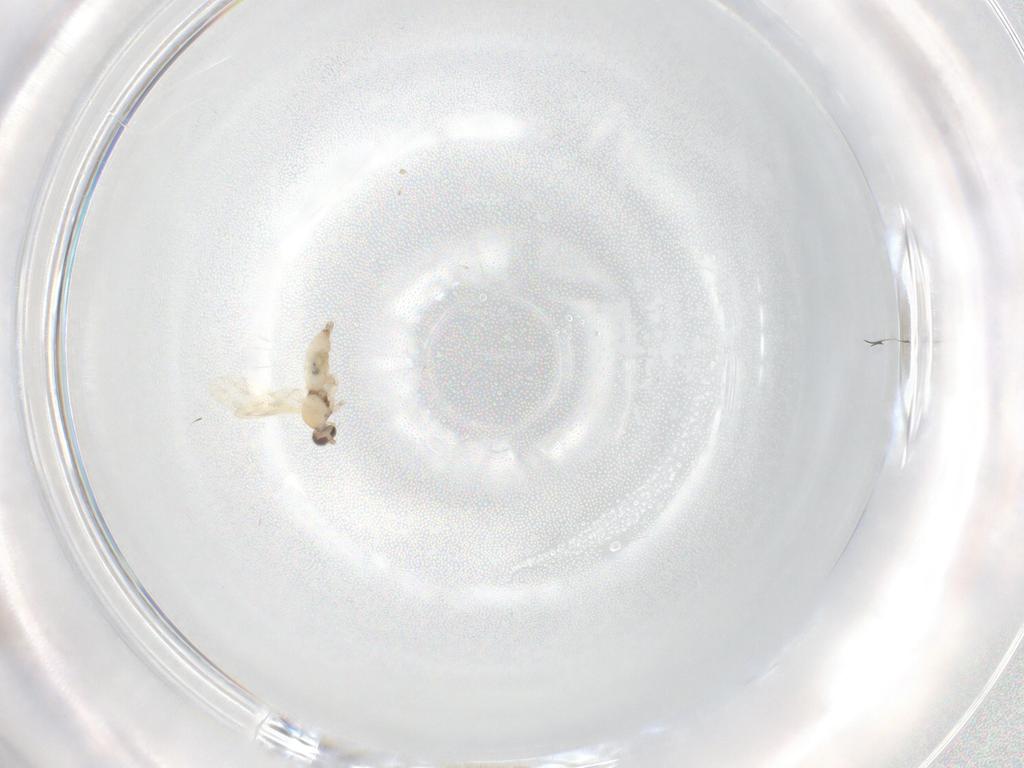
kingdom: Animalia
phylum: Arthropoda
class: Insecta
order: Diptera
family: Cecidomyiidae
